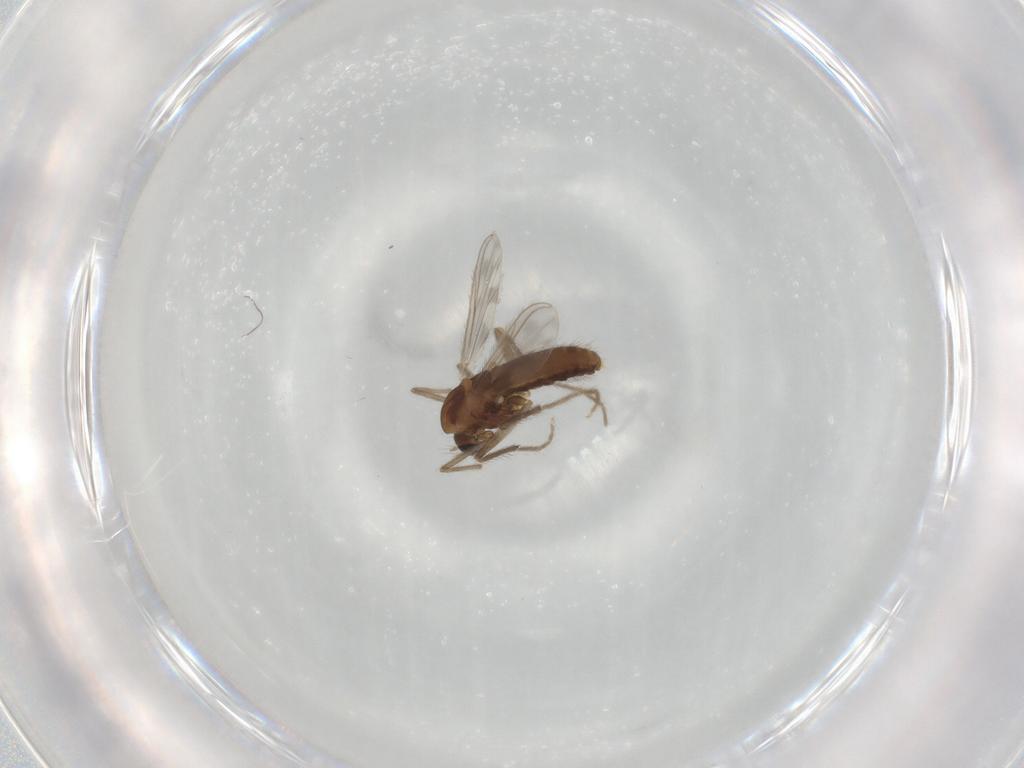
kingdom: Animalia
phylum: Arthropoda
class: Insecta
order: Diptera
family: Chironomidae
